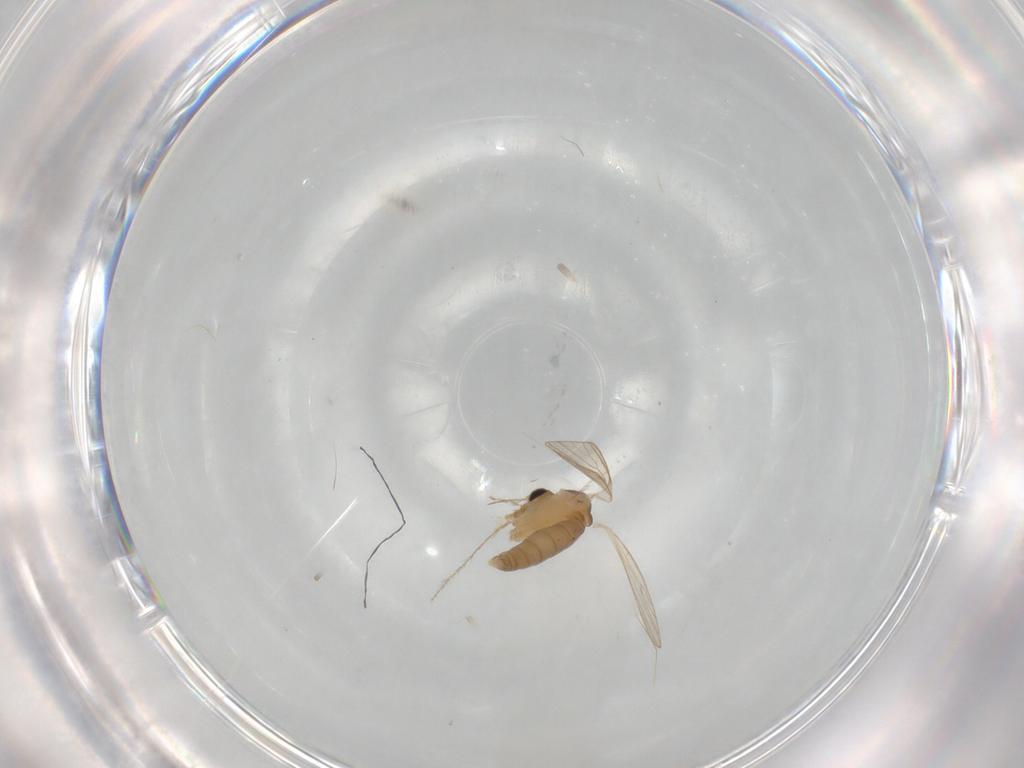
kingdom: Animalia
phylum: Arthropoda
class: Insecta
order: Diptera
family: Psychodidae
